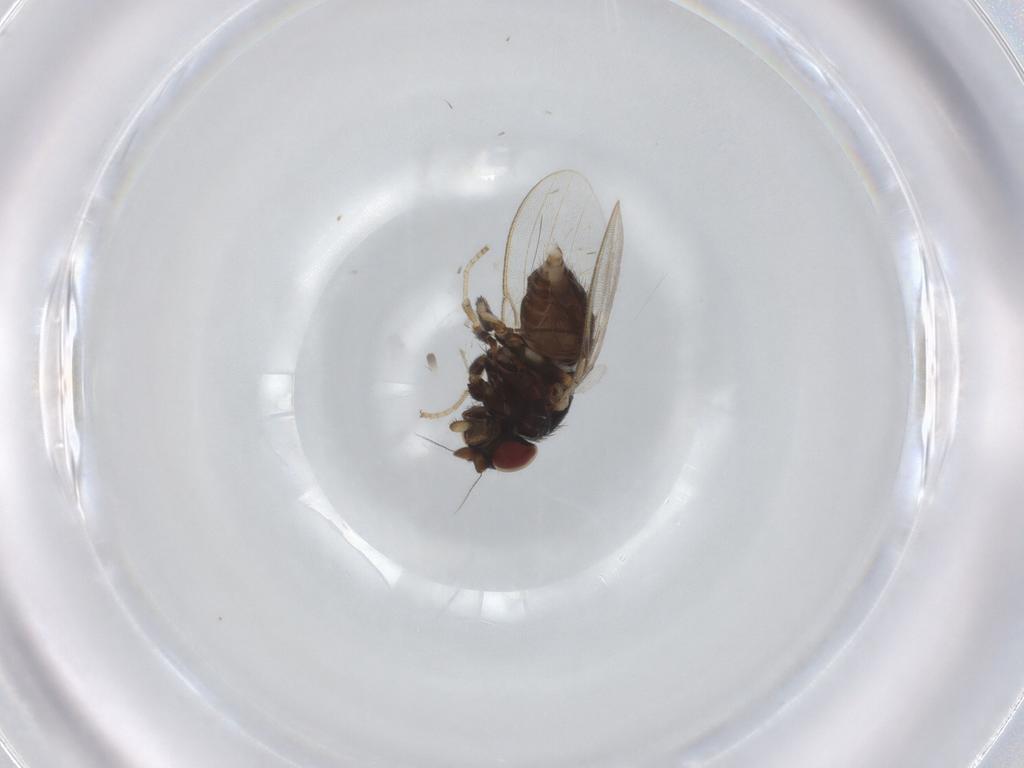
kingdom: Animalia
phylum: Arthropoda
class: Insecta
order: Diptera
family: Milichiidae
